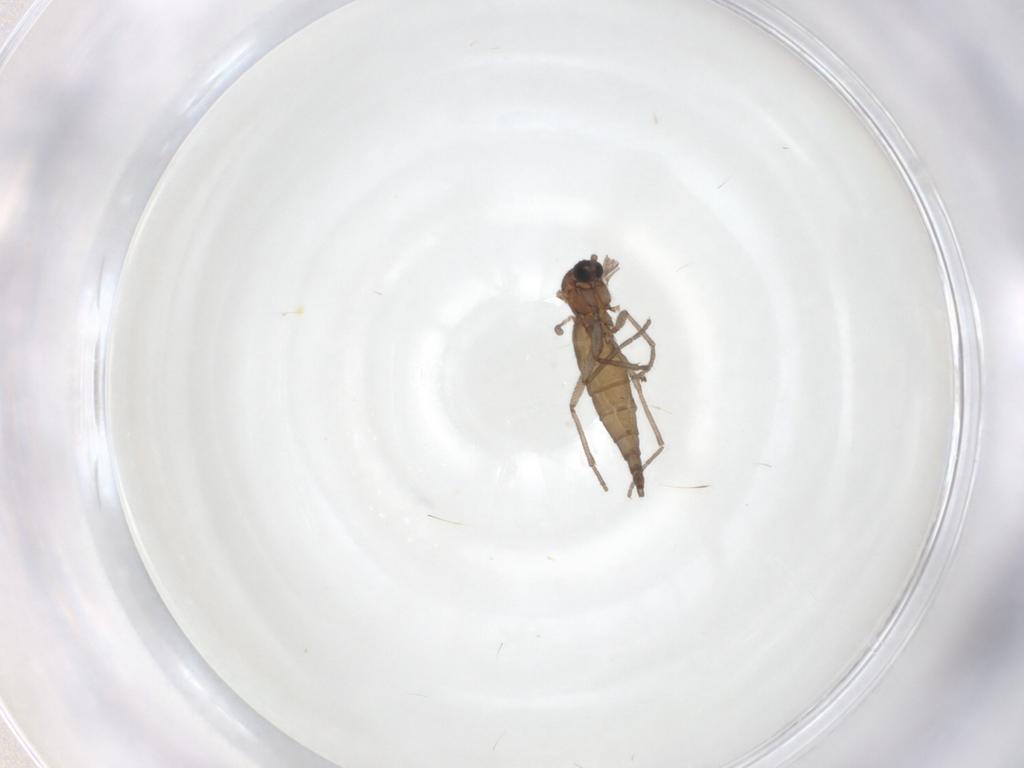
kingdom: Animalia
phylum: Arthropoda
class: Insecta
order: Diptera
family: Sciaridae
